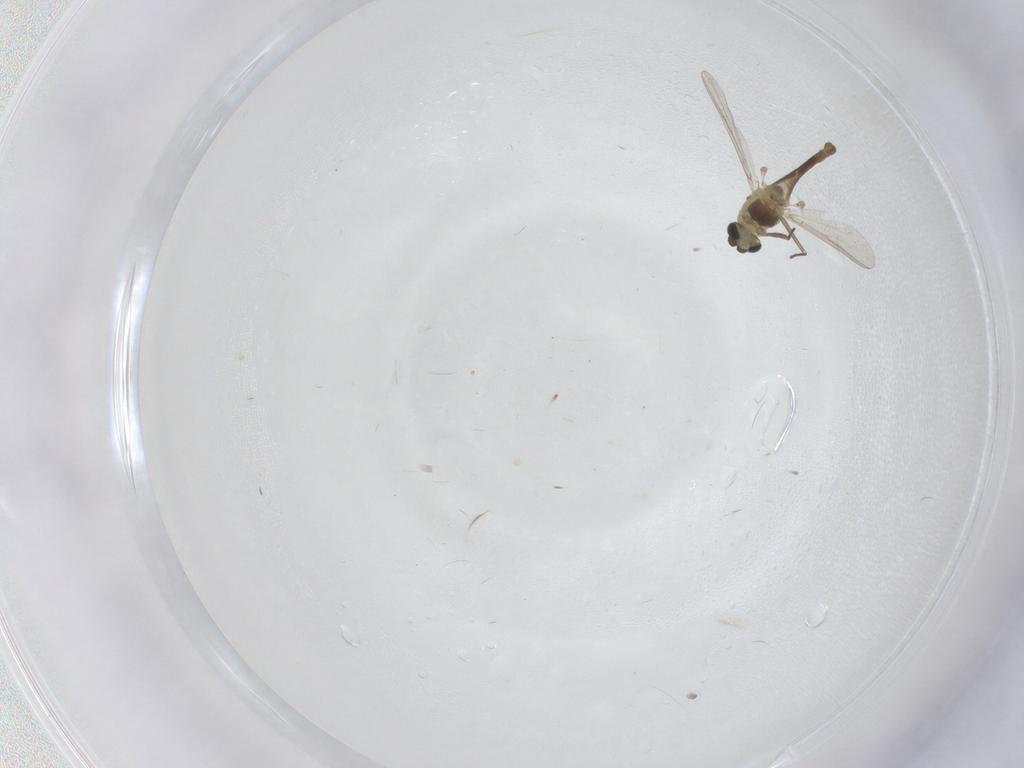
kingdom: Animalia
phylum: Arthropoda
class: Insecta
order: Diptera
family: Chironomidae
